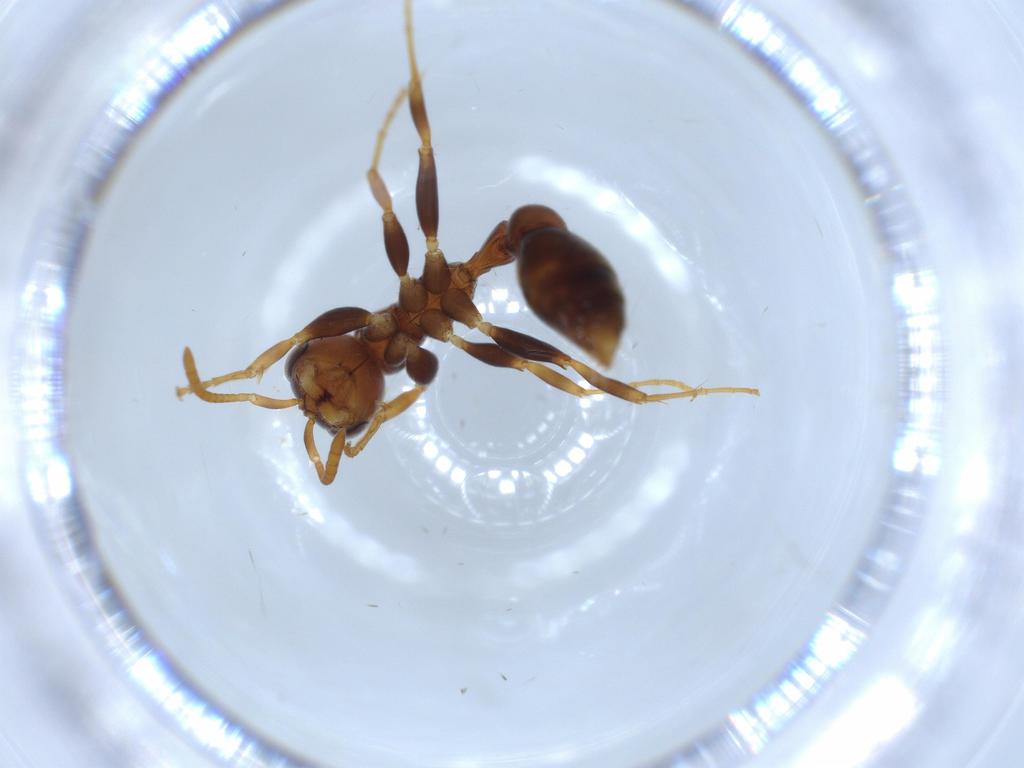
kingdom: Animalia
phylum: Arthropoda
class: Insecta
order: Hymenoptera
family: Formicidae
